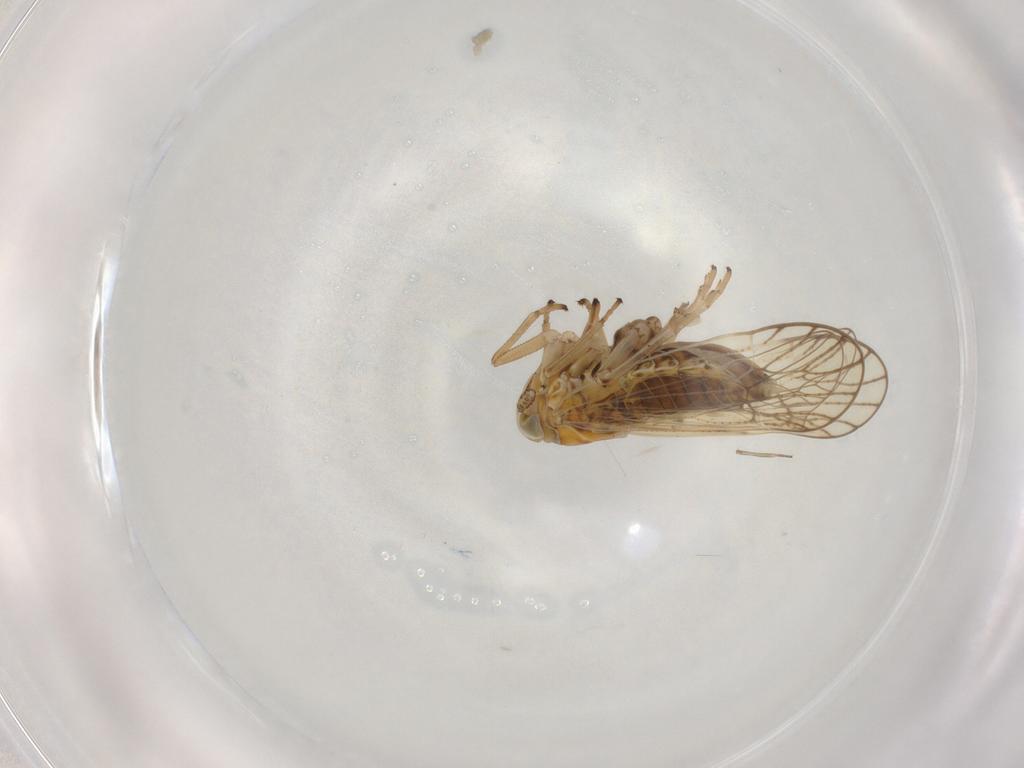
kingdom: Animalia
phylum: Arthropoda
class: Insecta
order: Hemiptera
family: Delphacidae
